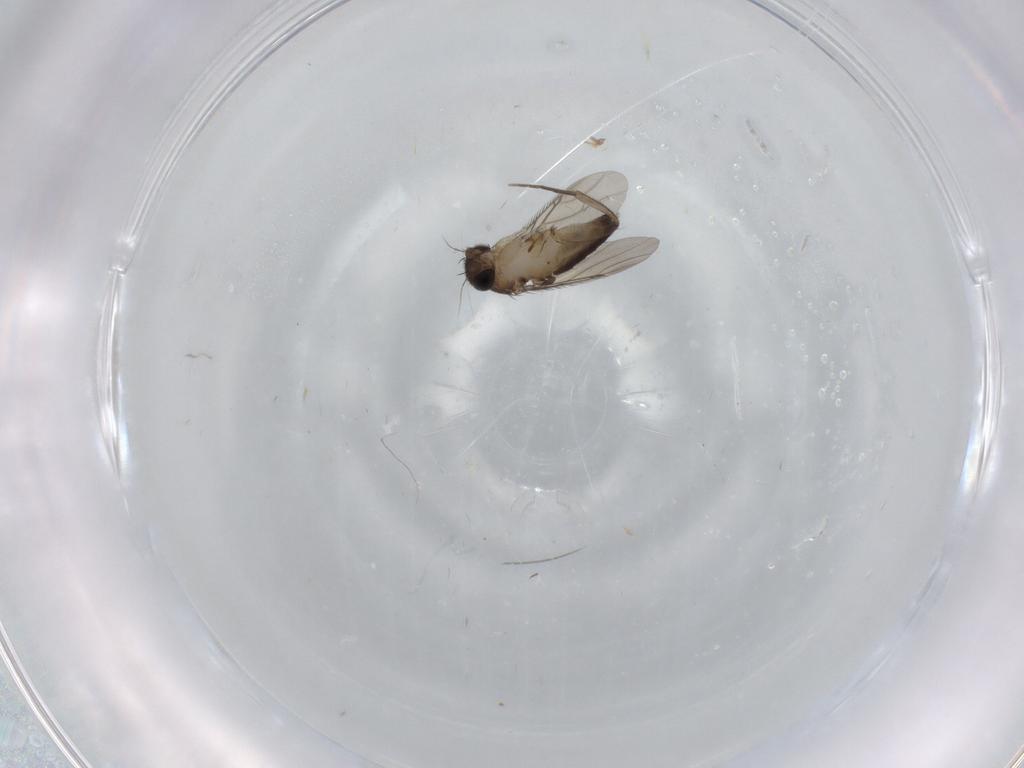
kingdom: Animalia
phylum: Arthropoda
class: Insecta
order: Diptera
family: Phoridae
